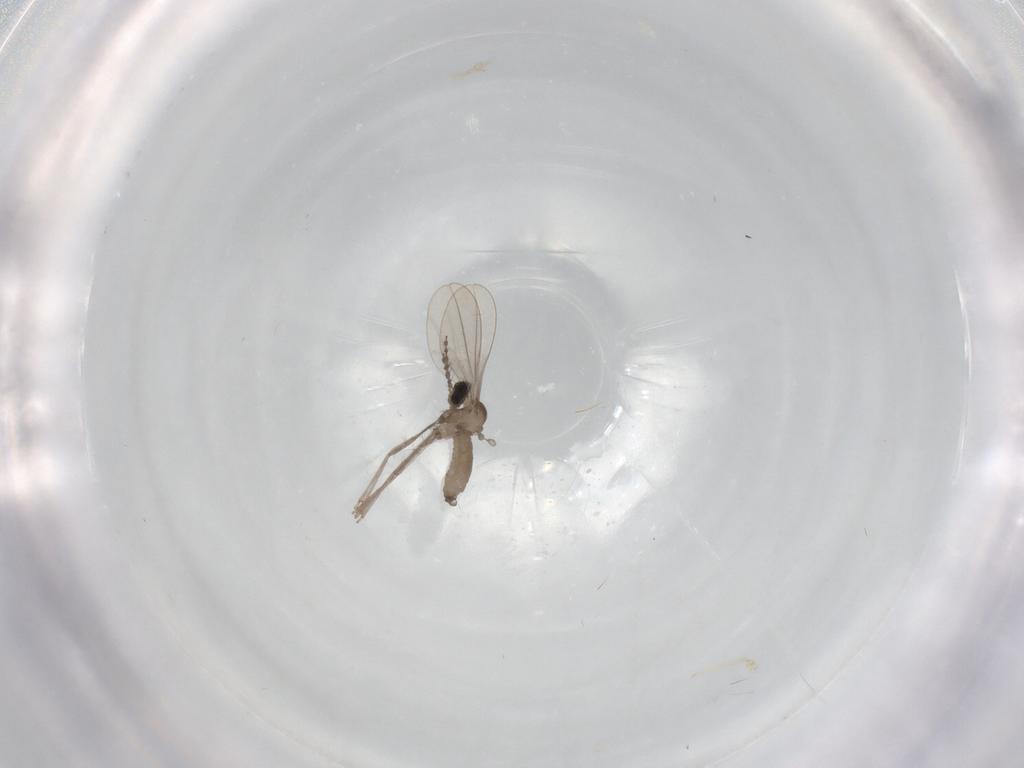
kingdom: Animalia
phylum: Arthropoda
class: Insecta
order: Diptera
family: Cecidomyiidae
